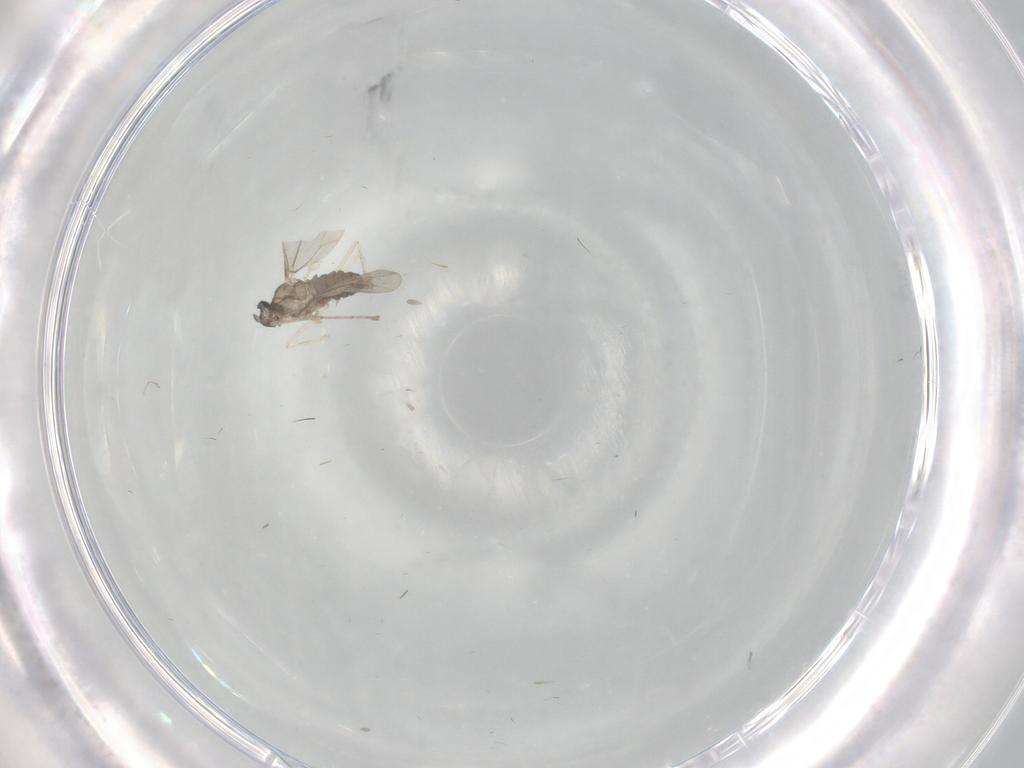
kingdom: Animalia
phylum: Arthropoda
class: Insecta
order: Diptera
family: Cecidomyiidae
